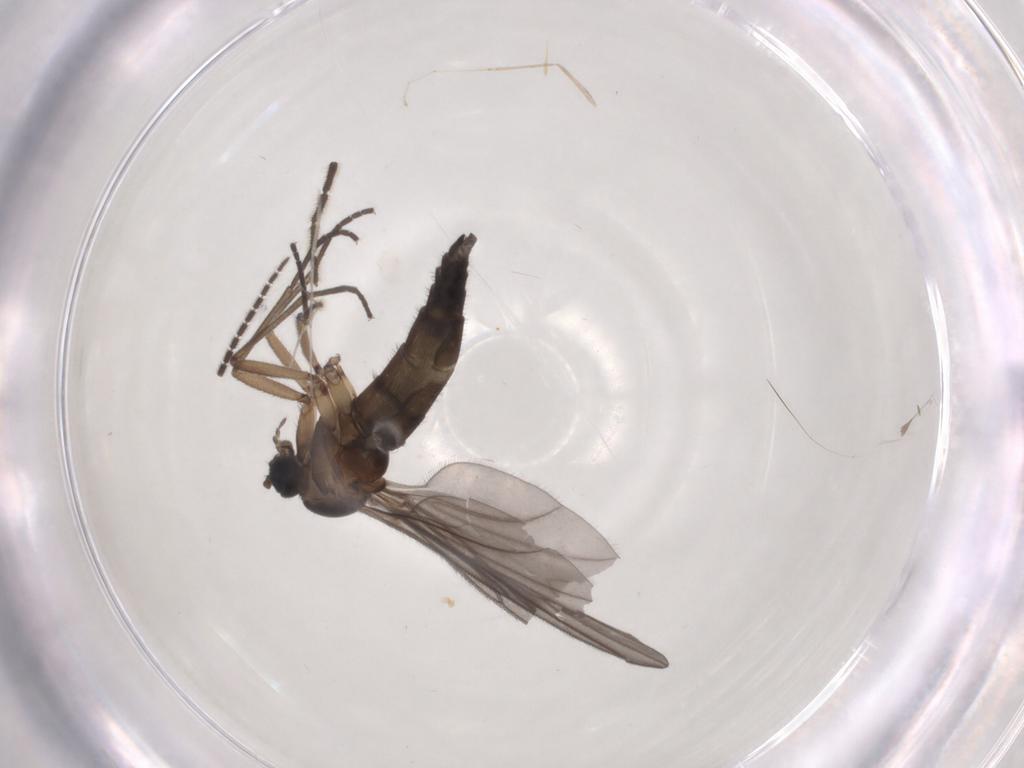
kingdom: Animalia
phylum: Arthropoda
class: Insecta
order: Diptera
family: Sciaridae
